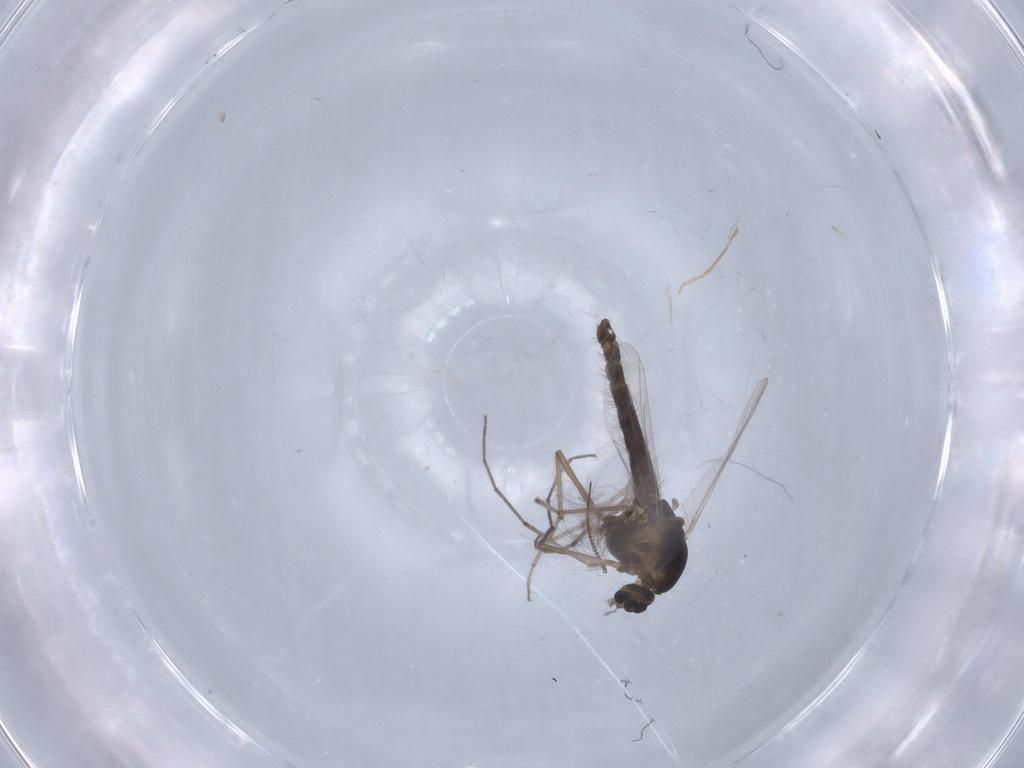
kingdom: Animalia
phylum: Arthropoda
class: Insecta
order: Diptera
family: Chironomidae
